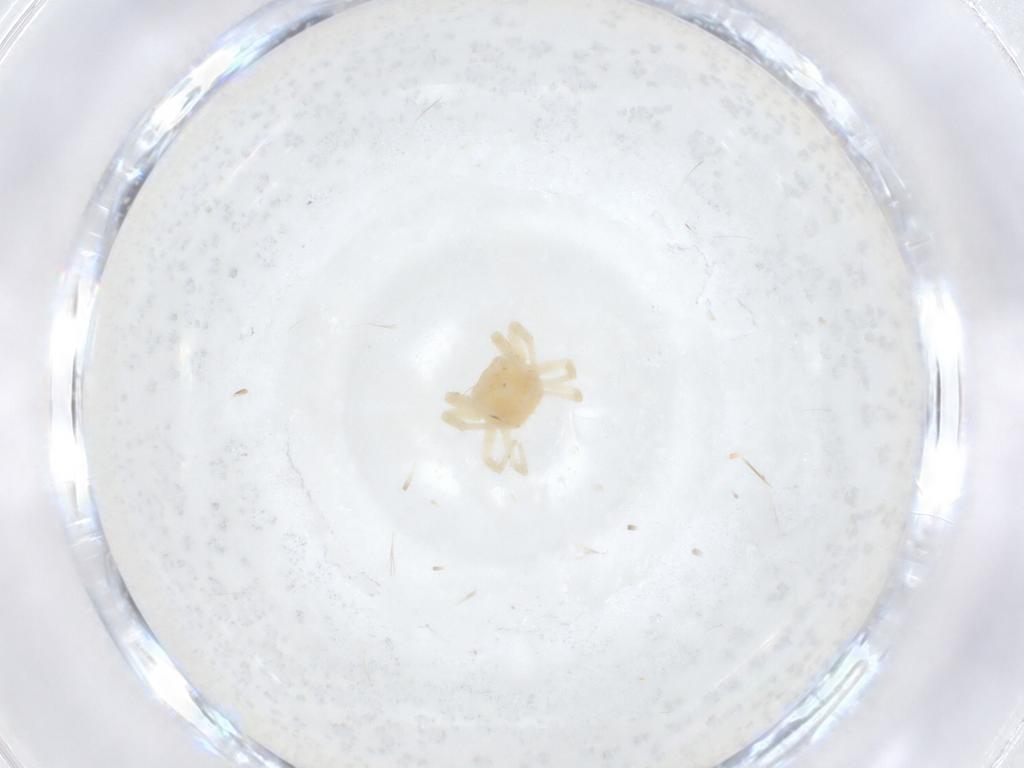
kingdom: Animalia
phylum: Arthropoda
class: Arachnida
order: Trombidiformes
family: Anystidae
